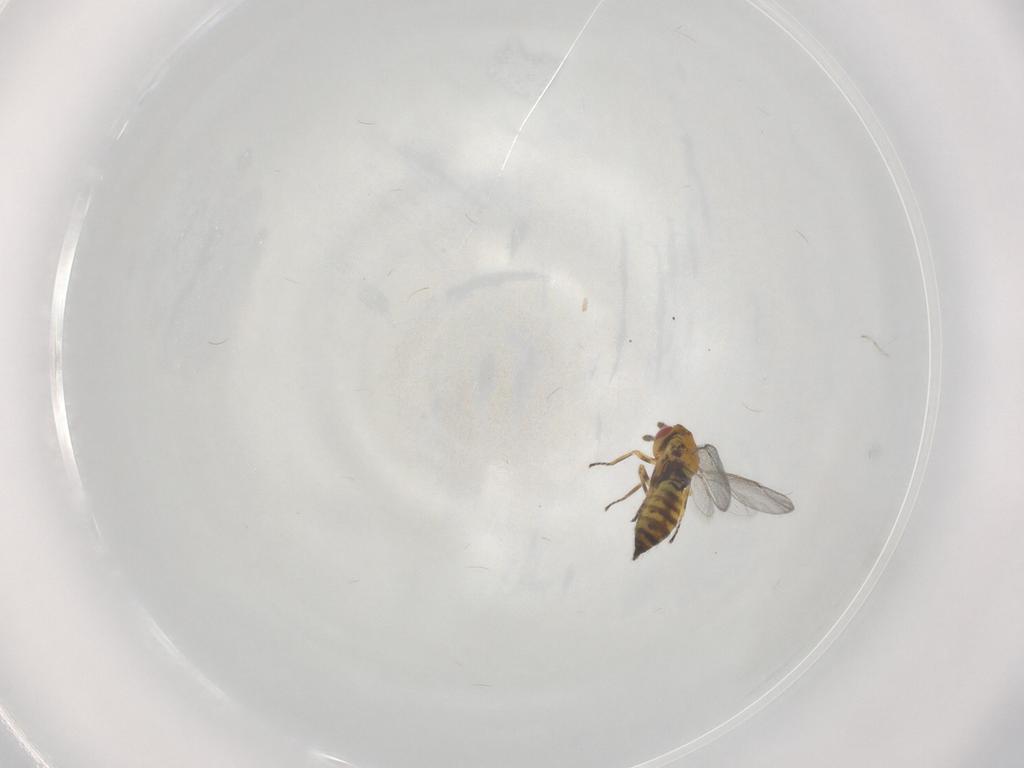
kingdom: Animalia
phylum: Arthropoda
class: Insecta
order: Hymenoptera
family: Eulophidae
